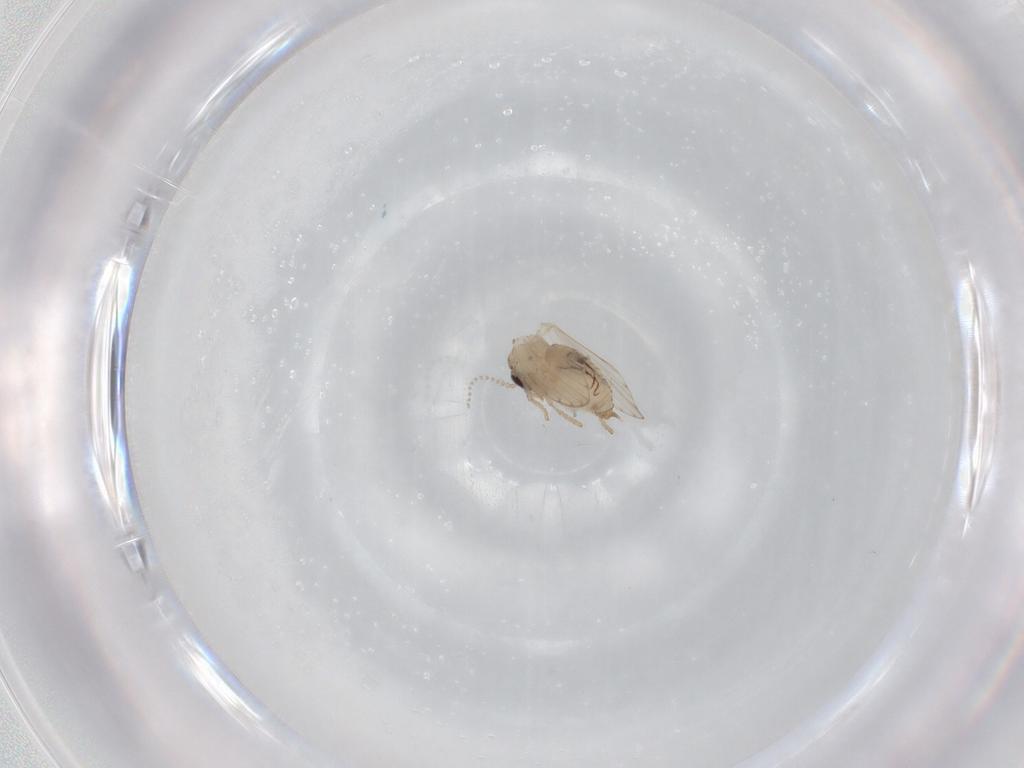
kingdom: Animalia
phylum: Arthropoda
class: Insecta
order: Diptera
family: Psychodidae
